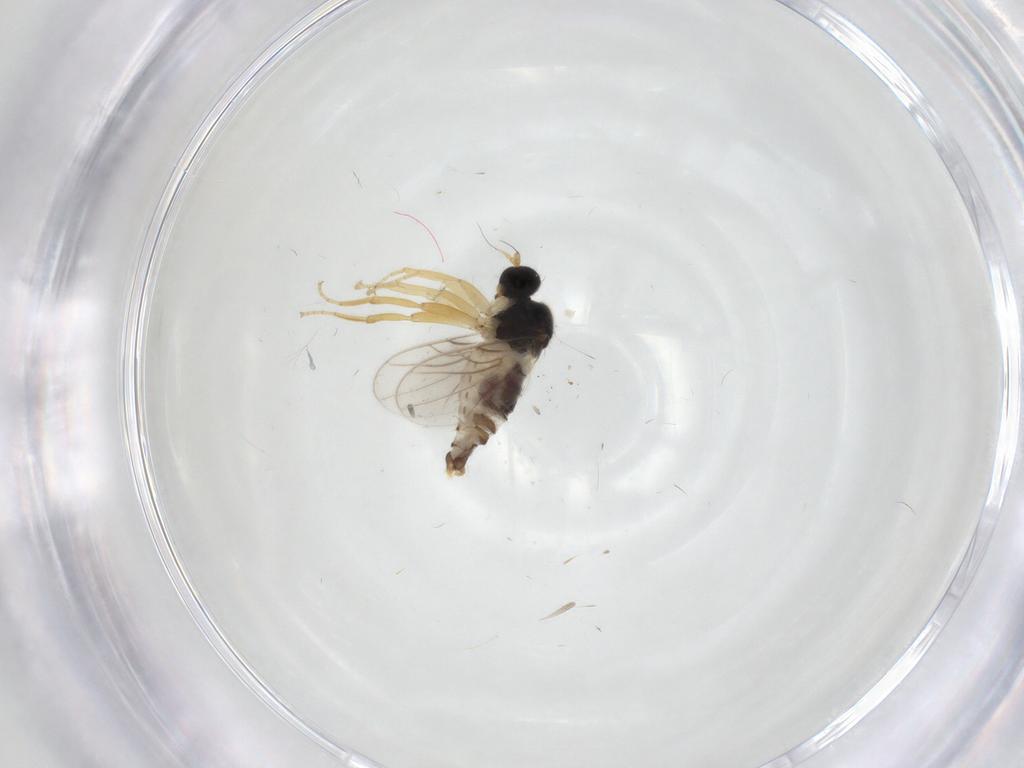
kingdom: Animalia
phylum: Arthropoda
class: Insecta
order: Diptera
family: Hybotidae
